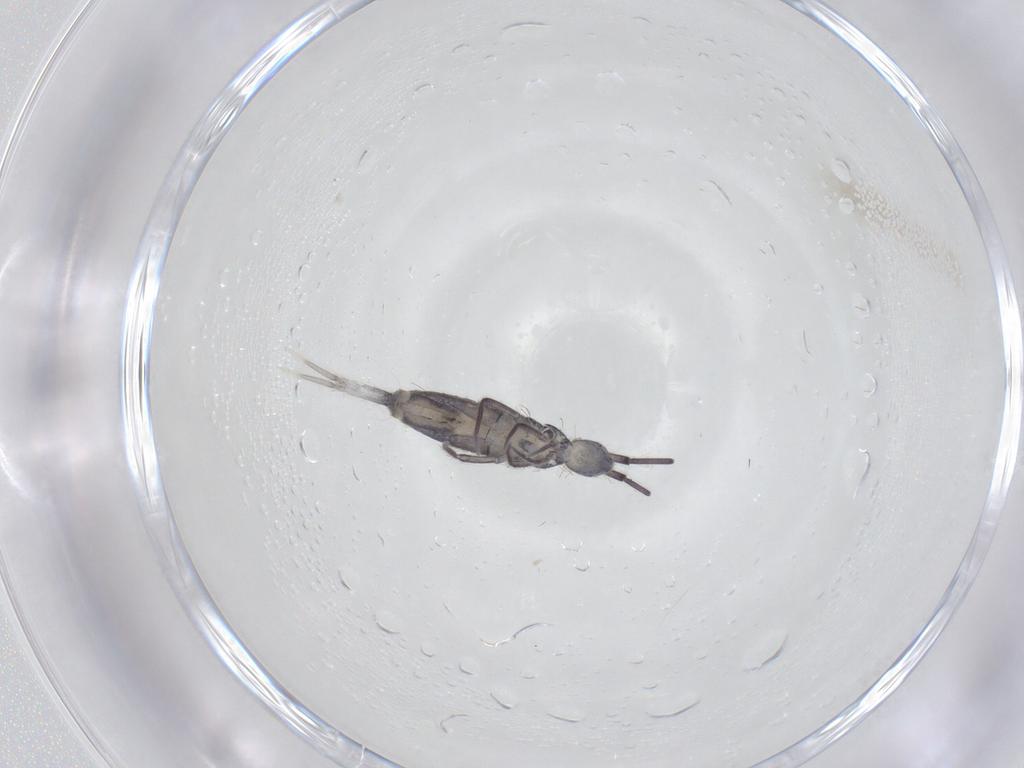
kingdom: Animalia
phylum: Arthropoda
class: Collembola
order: Entomobryomorpha
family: Entomobryidae
